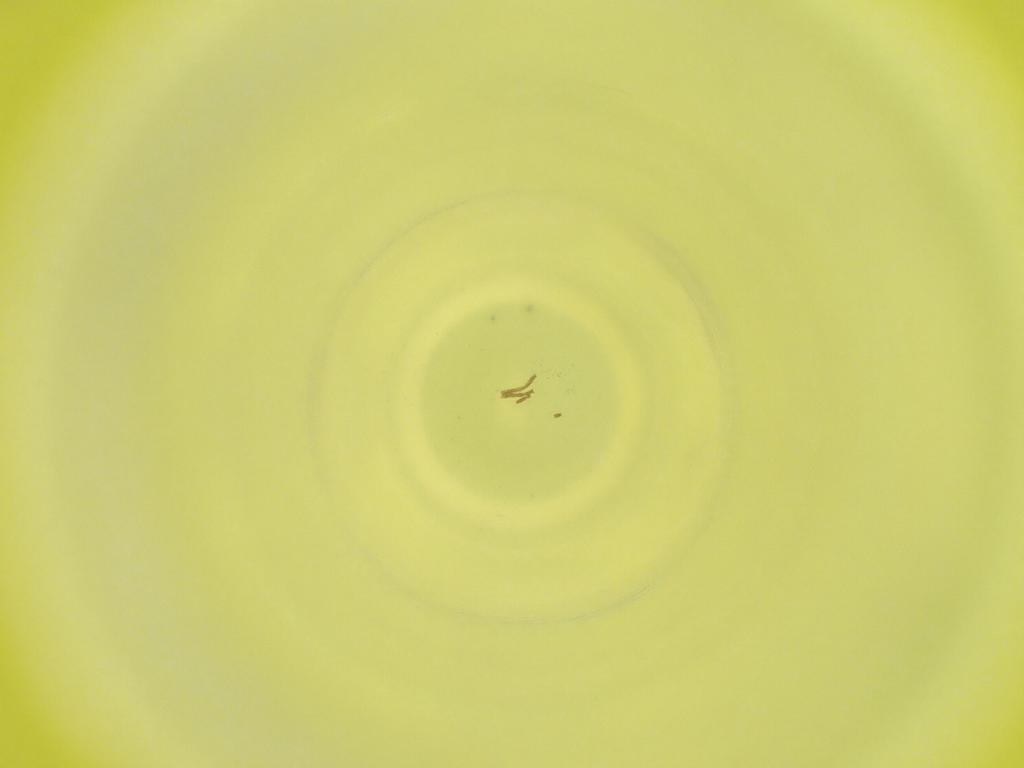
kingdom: Animalia
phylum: Arthropoda
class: Insecta
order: Diptera
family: Cecidomyiidae
